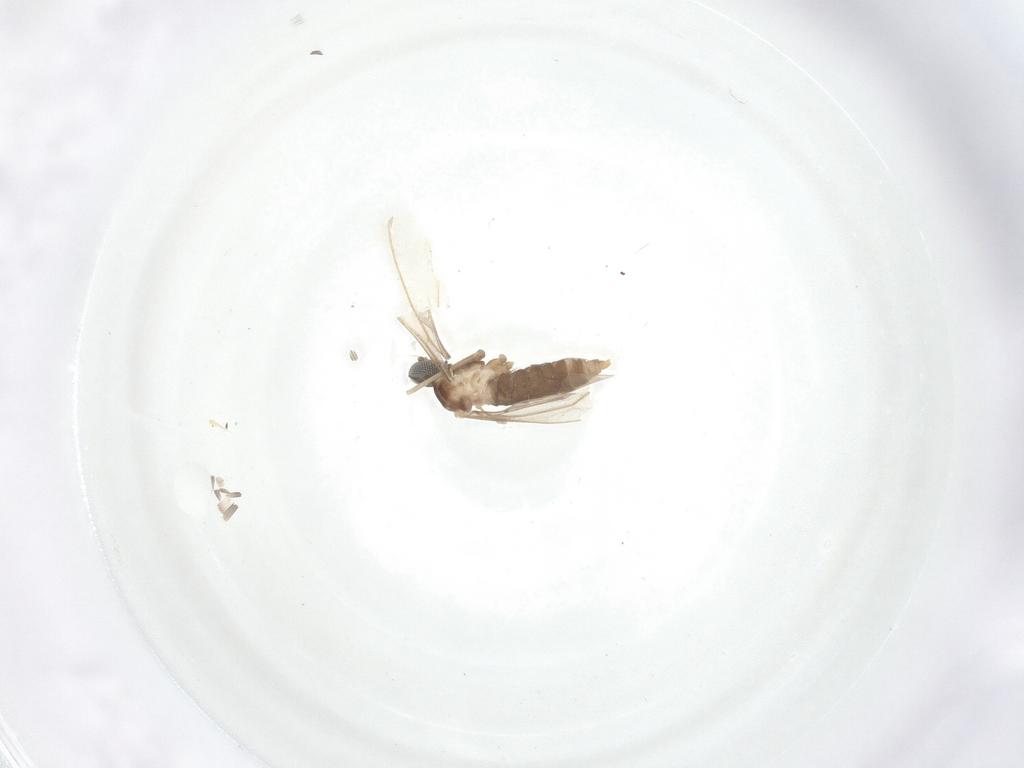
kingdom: Animalia
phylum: Arthropoda
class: Insecta
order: Diptera
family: Cecidomyiidae
